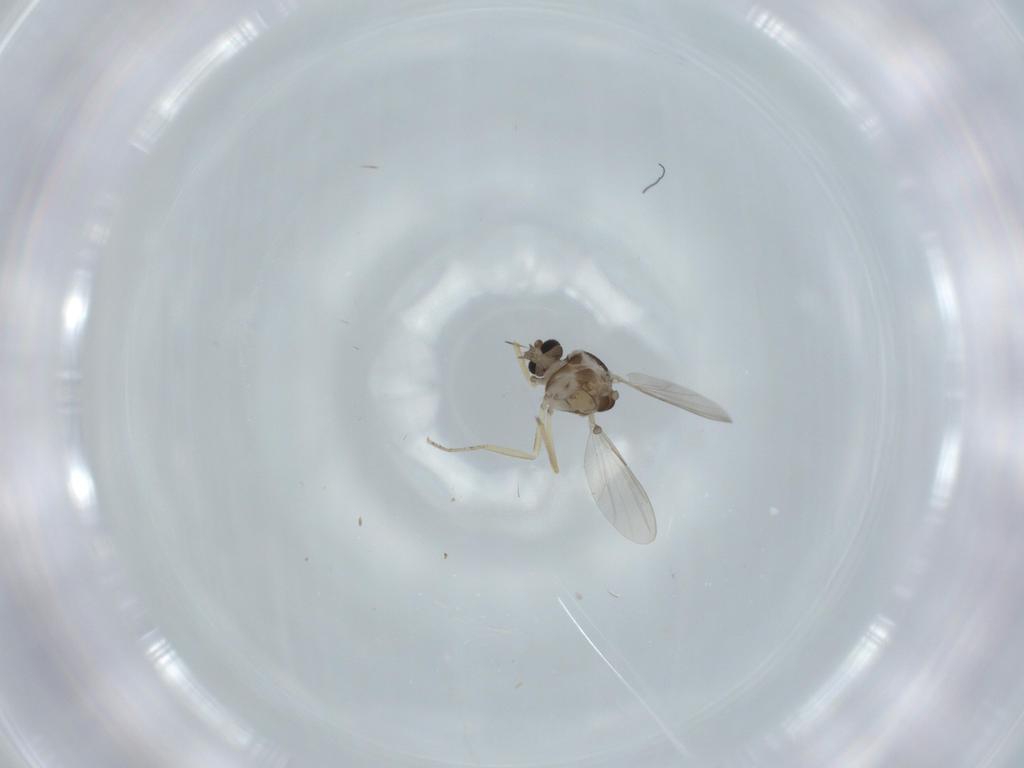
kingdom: Animalia
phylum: Arthropoda
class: Insecta
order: Diptera
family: Ceratopogonidae
